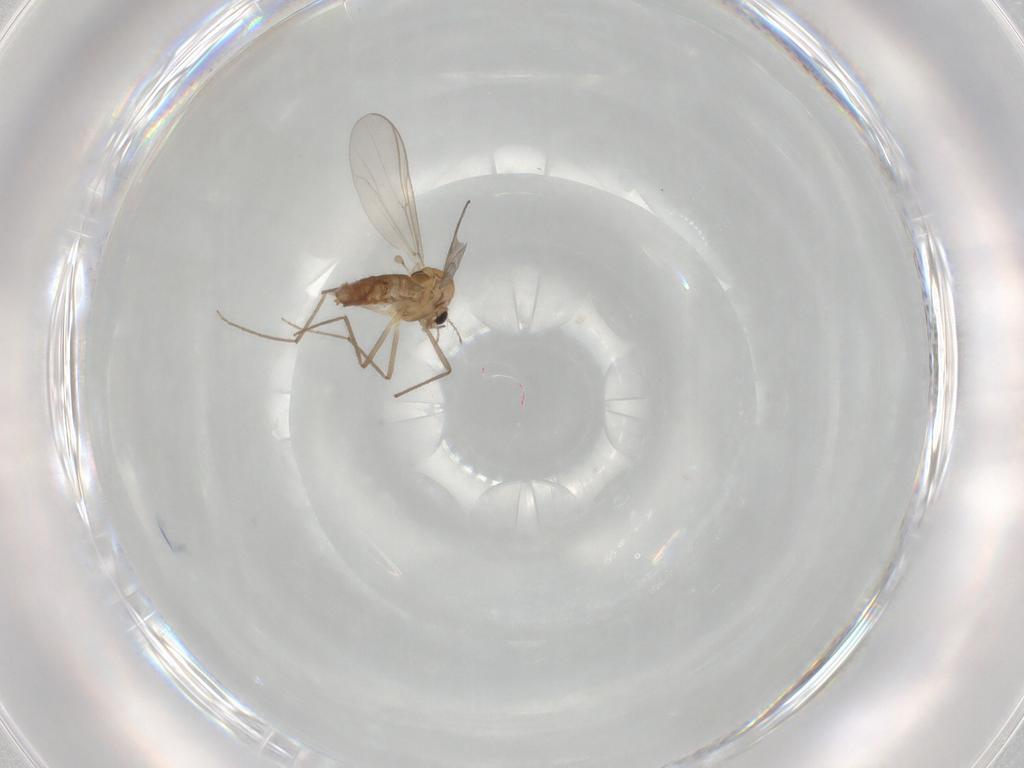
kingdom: Animalia
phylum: Arthropoda
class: Insecta
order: Diptera
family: Chironomidae
